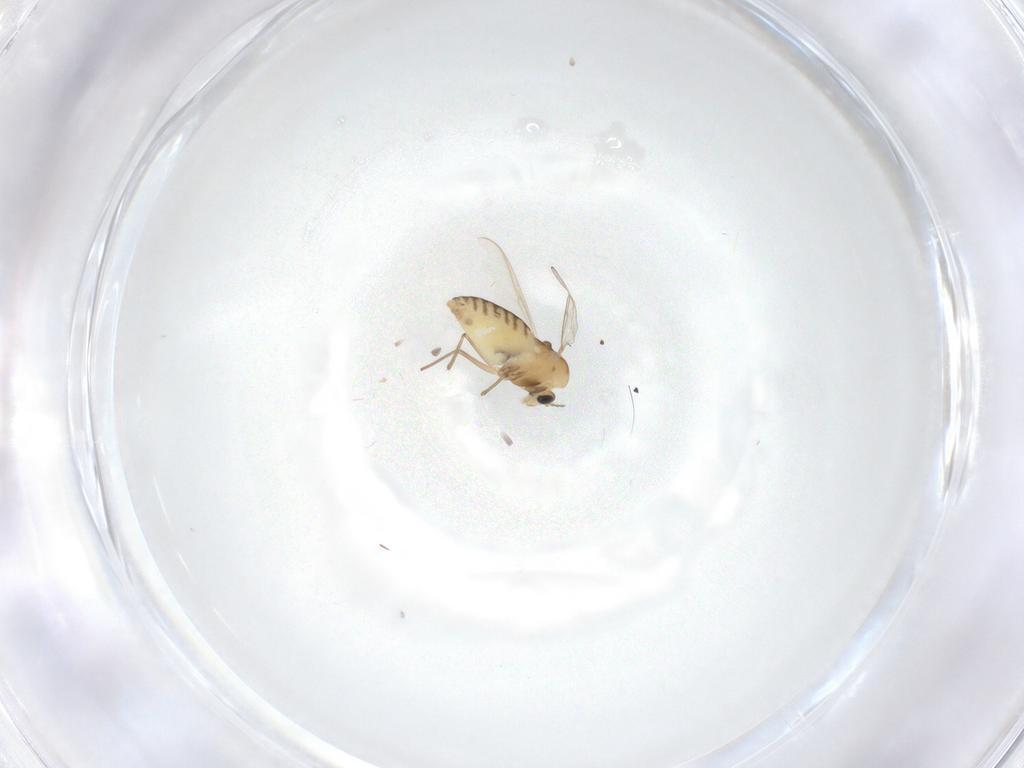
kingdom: Animalia
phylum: Arthropoda
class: Insecta
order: Diptera
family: Chironomidae
